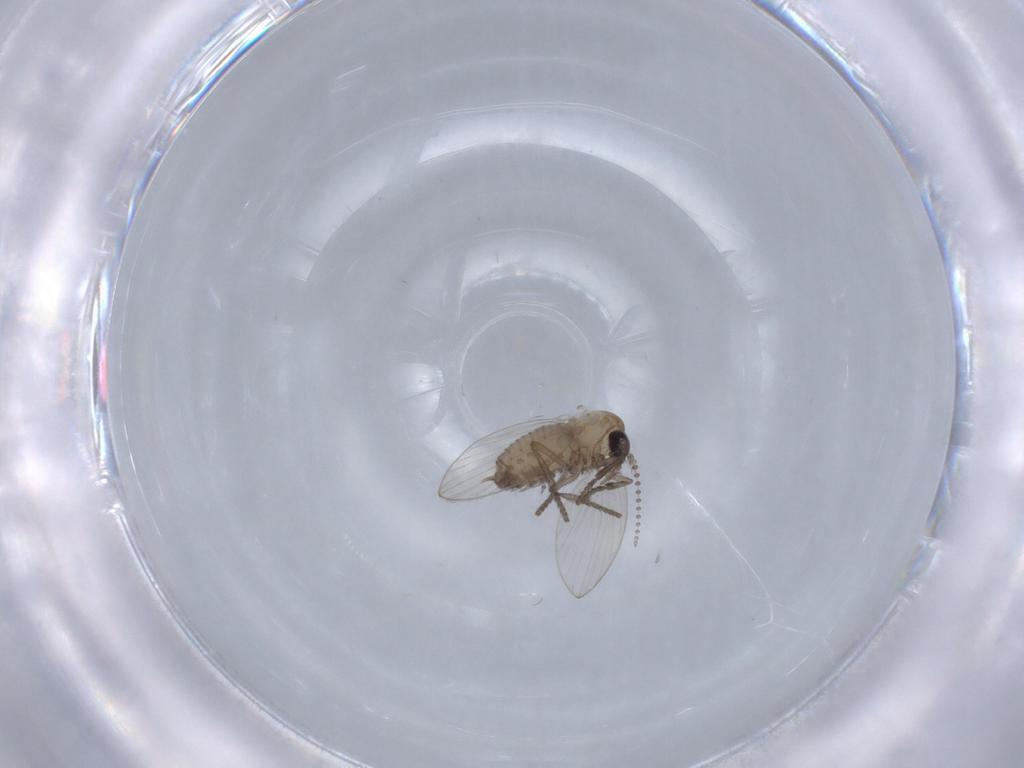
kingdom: Animalia
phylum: Arthropoda
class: Insecta
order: Diptera
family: Psychodidae
